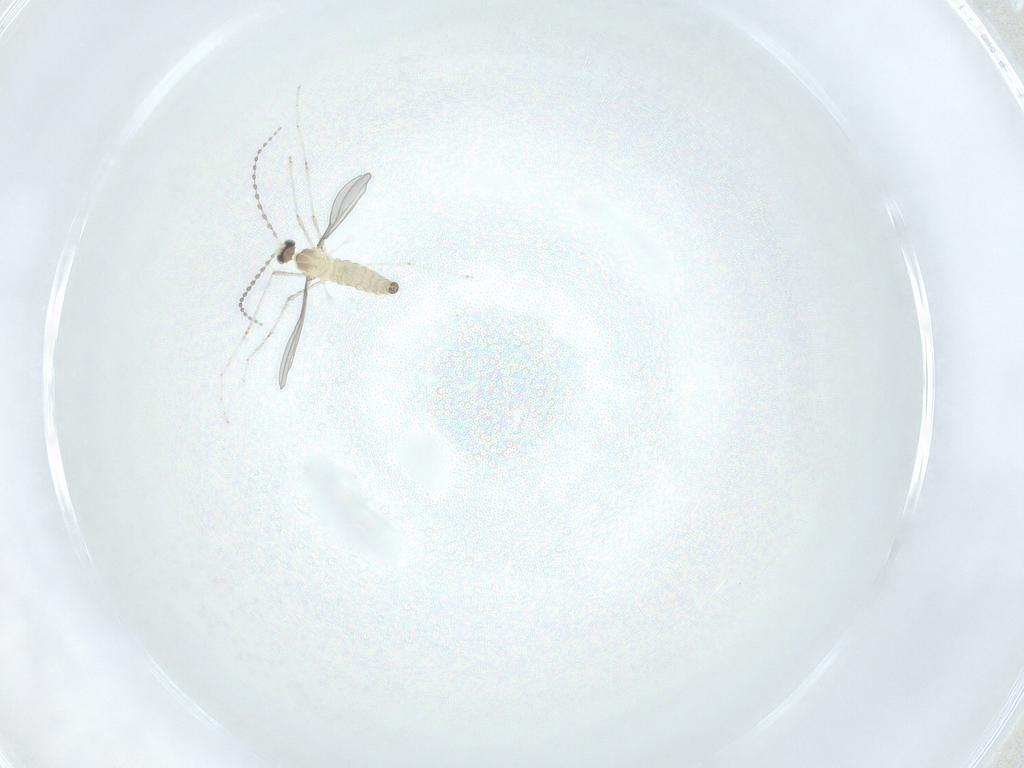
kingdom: Animalia
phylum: Arthropoda
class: Insecta
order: Diptera
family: Cecidomyiidae
